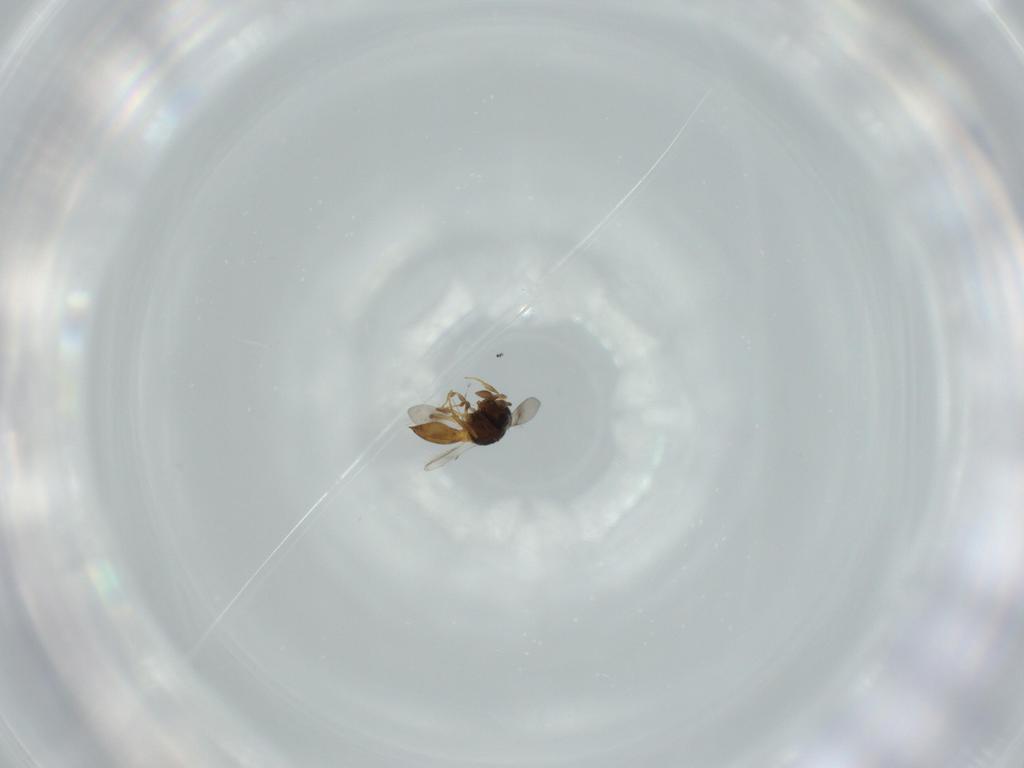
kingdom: Animalia
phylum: Arthropoda
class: Insecta
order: Hymenoptera
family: Scelionidae
